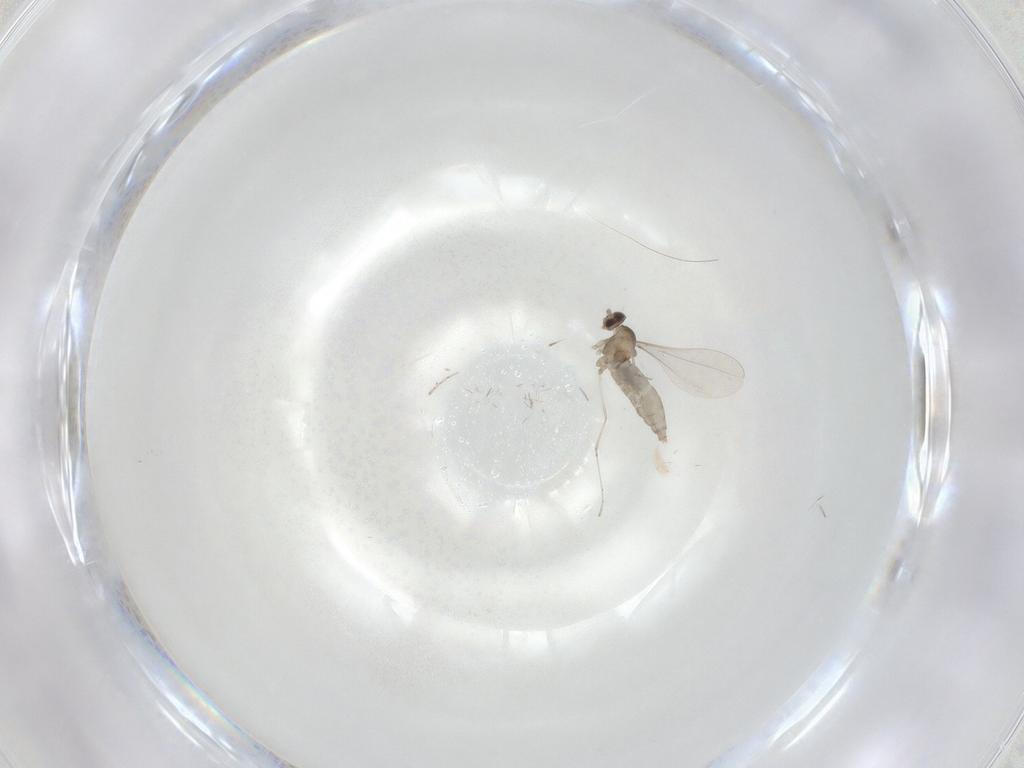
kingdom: Animalia
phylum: Arthropoda
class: Insecta
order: Diptera
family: Cecidomyiidae
